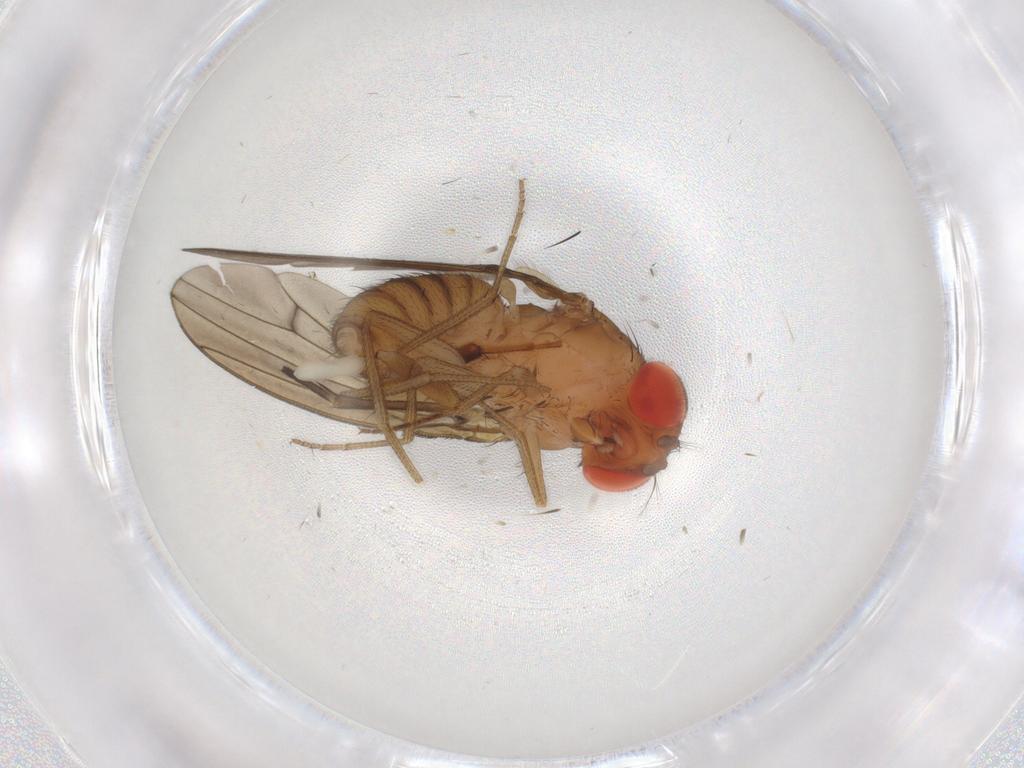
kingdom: Animalia
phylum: Arthropoda
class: Insecta
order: Diptera
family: Drosophilidae
